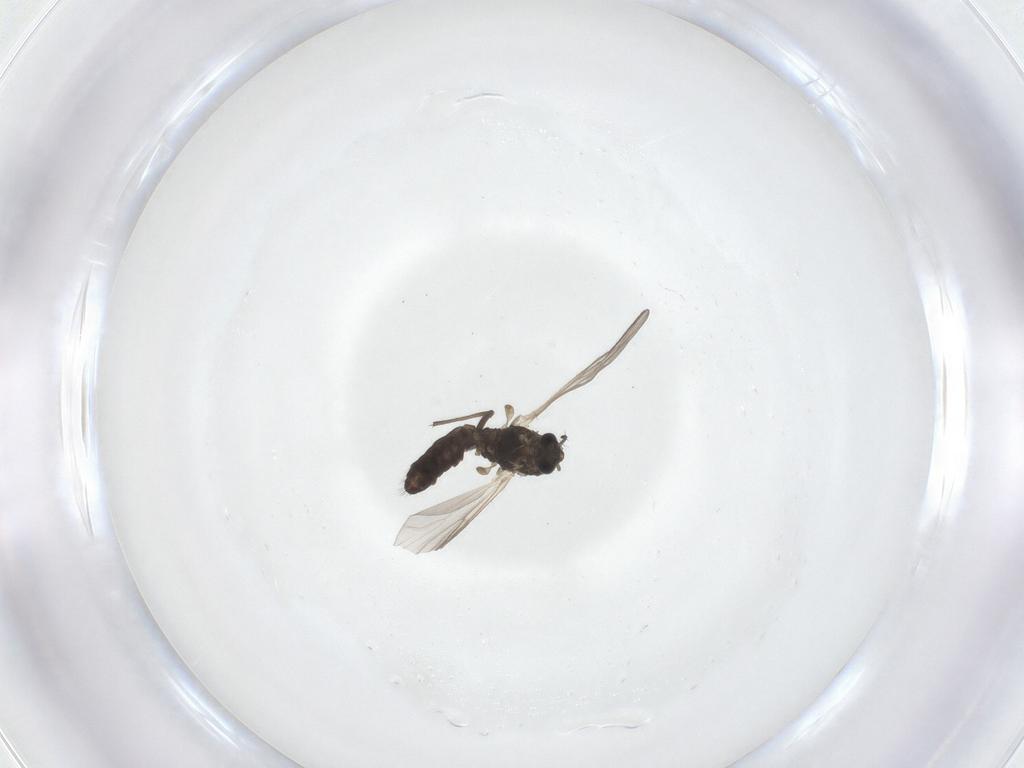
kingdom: Animalia
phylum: Arthropoda
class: Insecta
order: Diptera
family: Chironomidae
